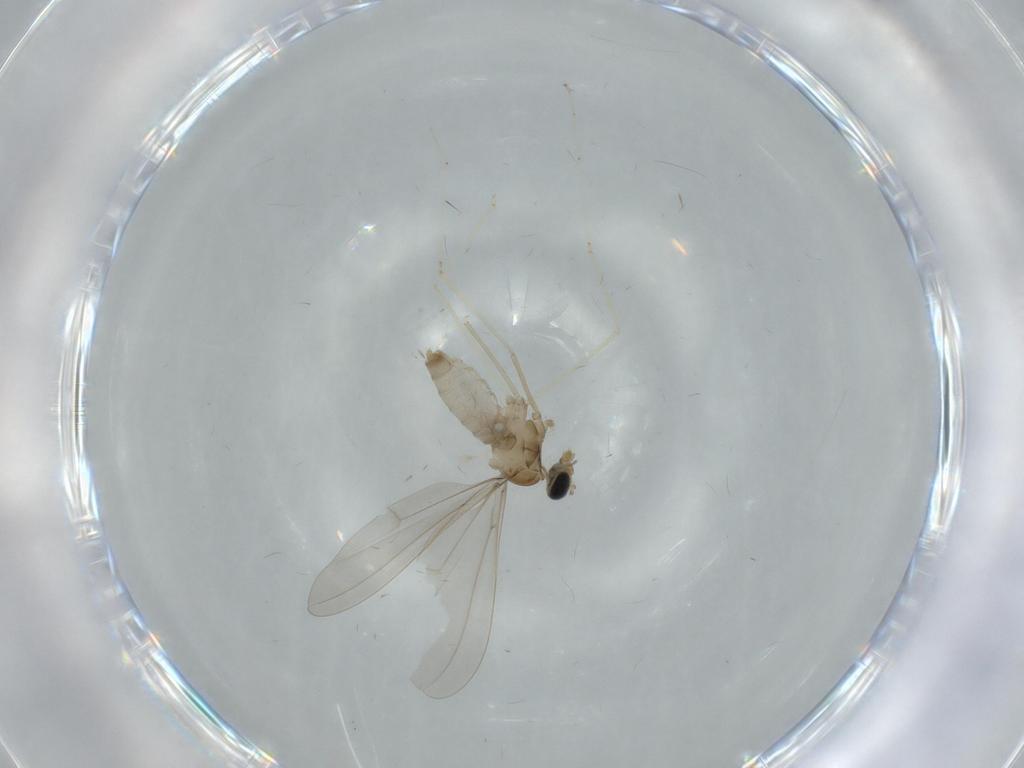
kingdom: Animalia
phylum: Arthropoda
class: Insecta
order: Diptera
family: Cecidomyiidae
